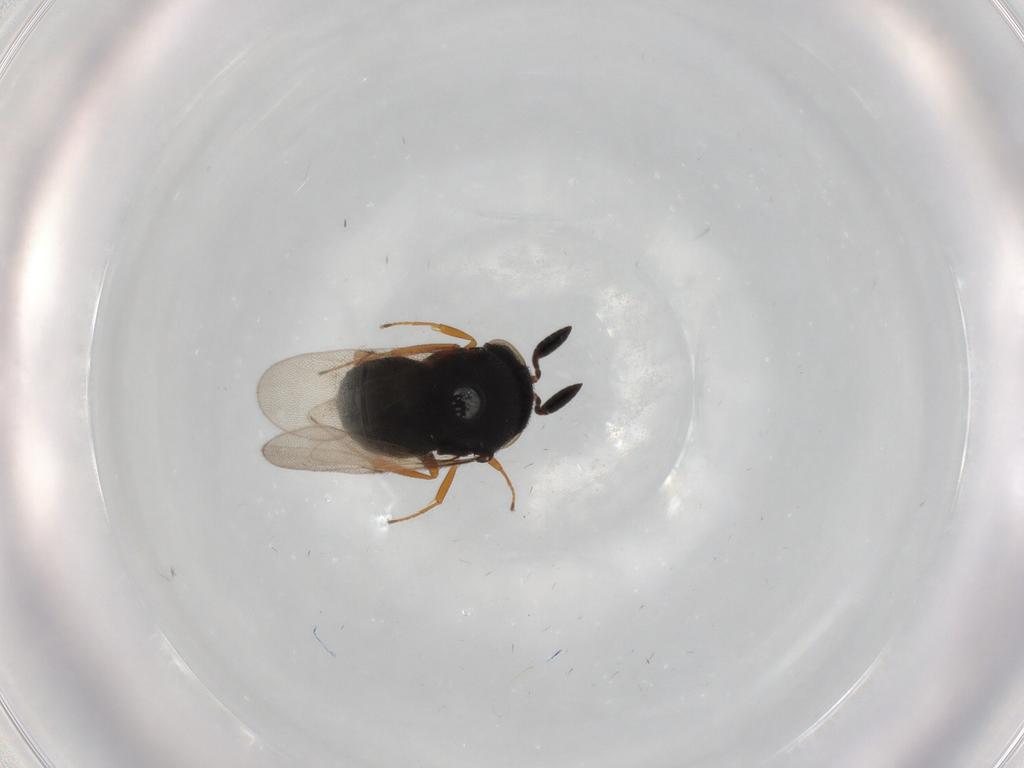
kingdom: Animalia
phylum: Arthropoda
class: Insecta
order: Hymenoptera
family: Scelionidae
